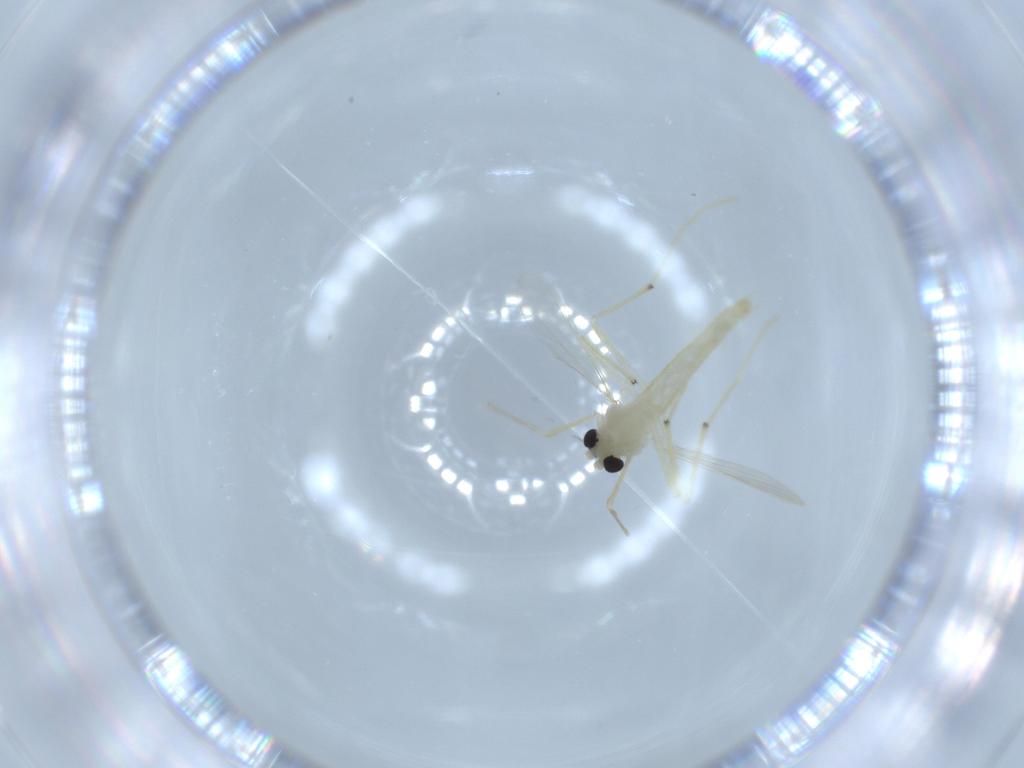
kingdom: Animalia
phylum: Arthropoda
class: Insecta
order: Diptera
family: Chironomidae
